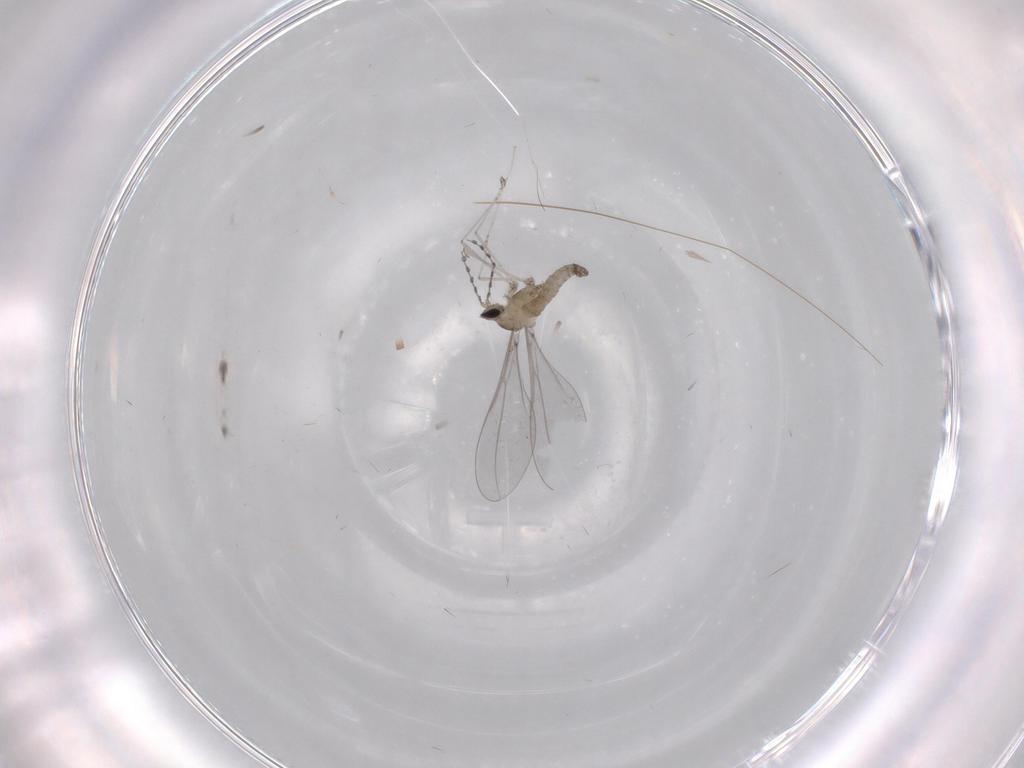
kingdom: Animalia
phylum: Arthropoda
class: Insecta
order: Diptera
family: Cecidomyiidae
